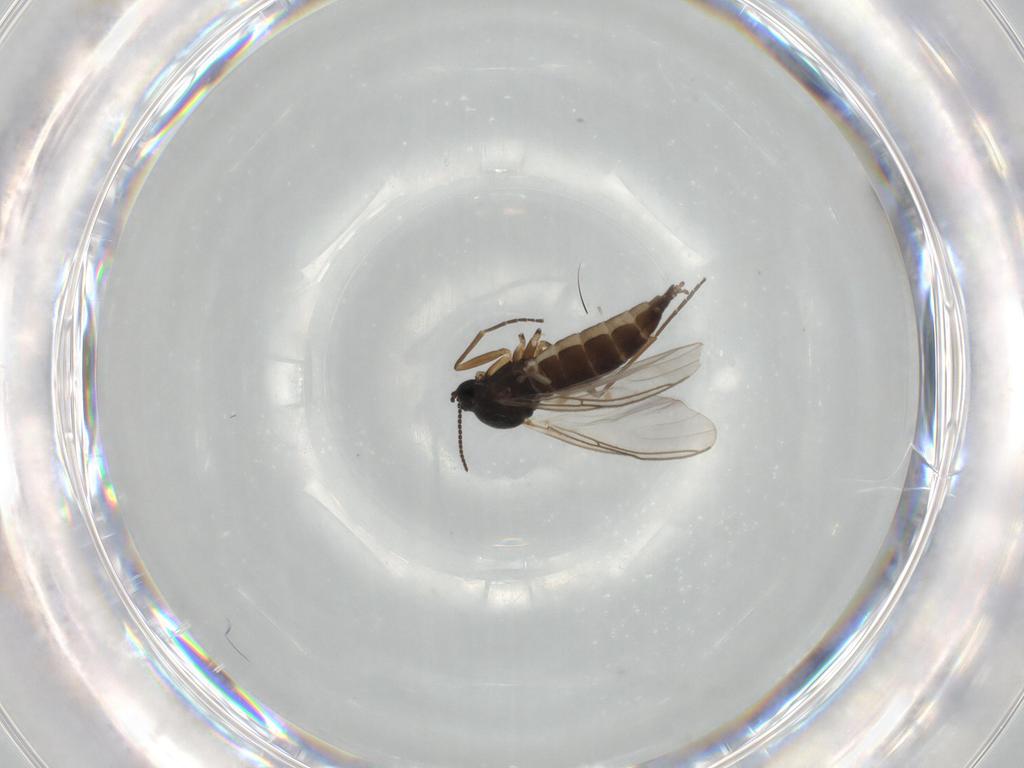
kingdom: Animalia
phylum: Arthropoda
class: Insecta
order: Diptera
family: Sciaridae
